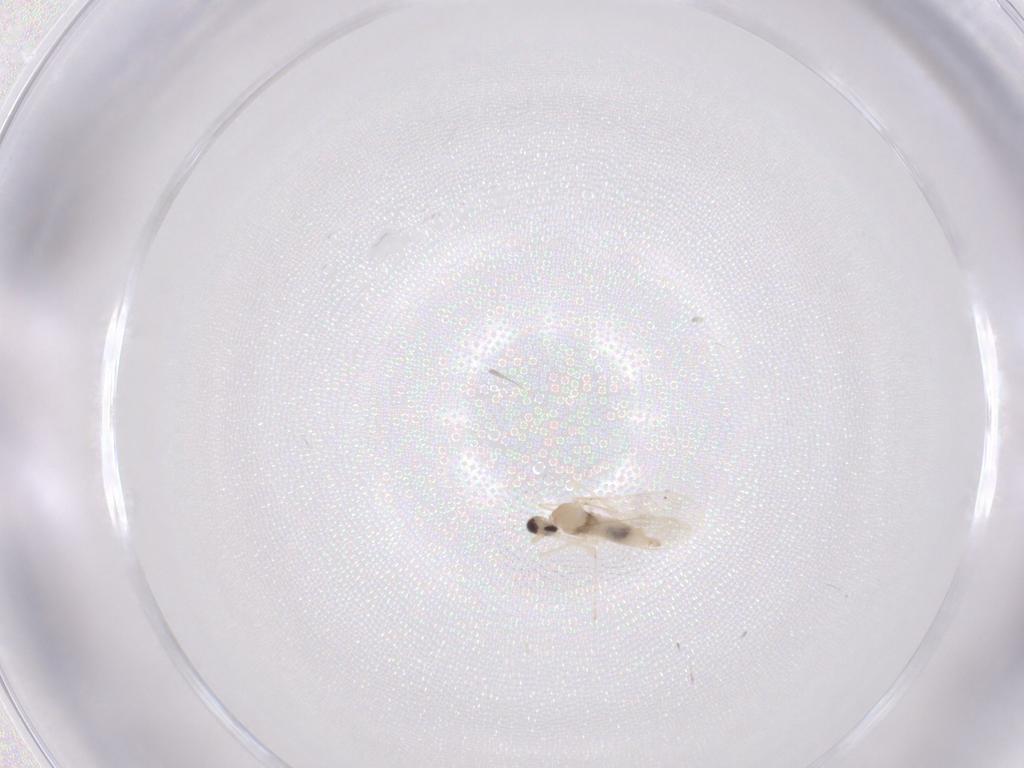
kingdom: Animalia
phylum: Arthropoda
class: Insecta
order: Diptera
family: Cecidomyiidae
